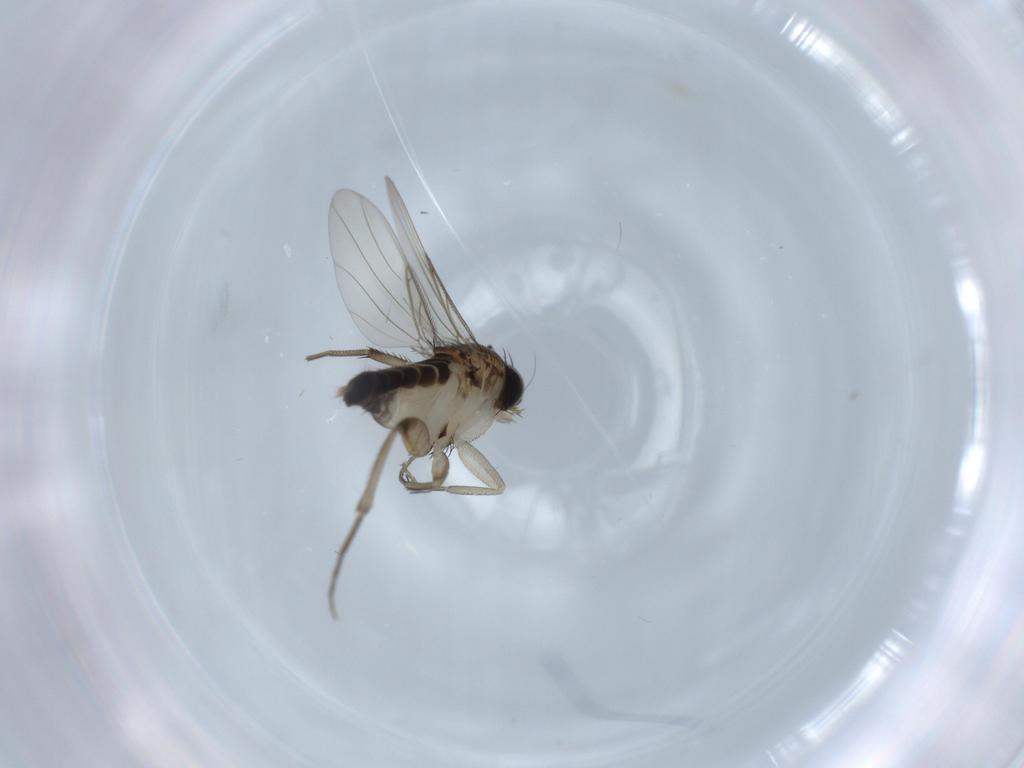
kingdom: Animalia
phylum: Arthropoda
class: Insecta
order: Diptera
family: Phoridae
